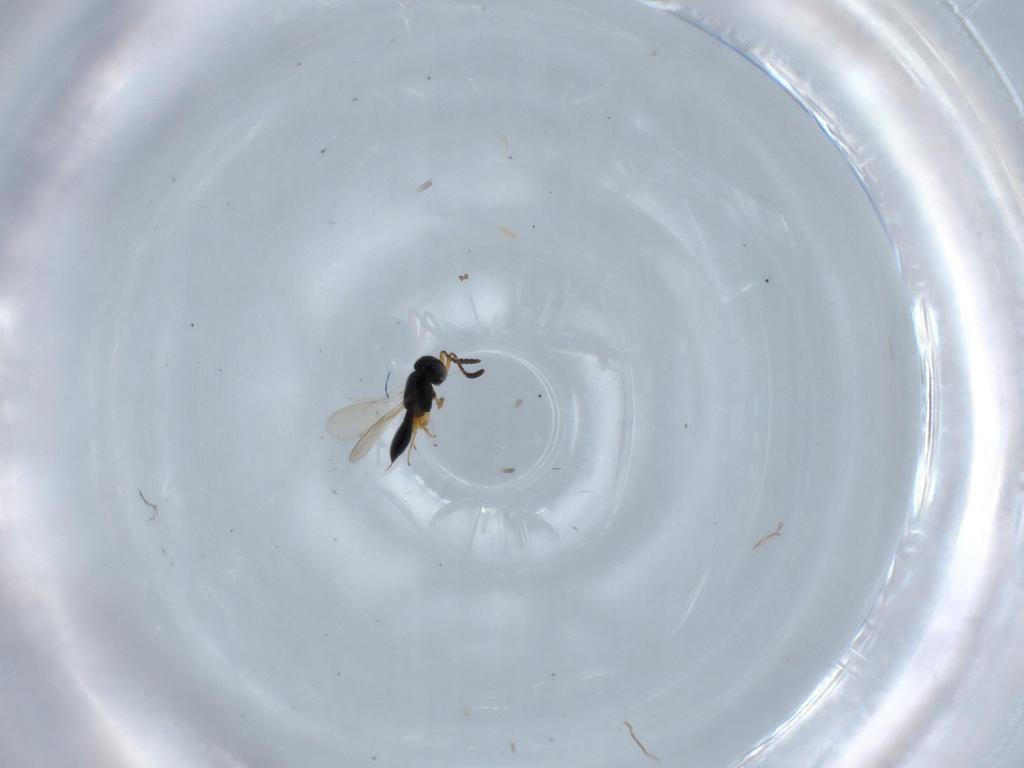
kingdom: Animalia
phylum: Arthropoda
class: Insecta
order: Hymenoptera
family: Scelionidae
